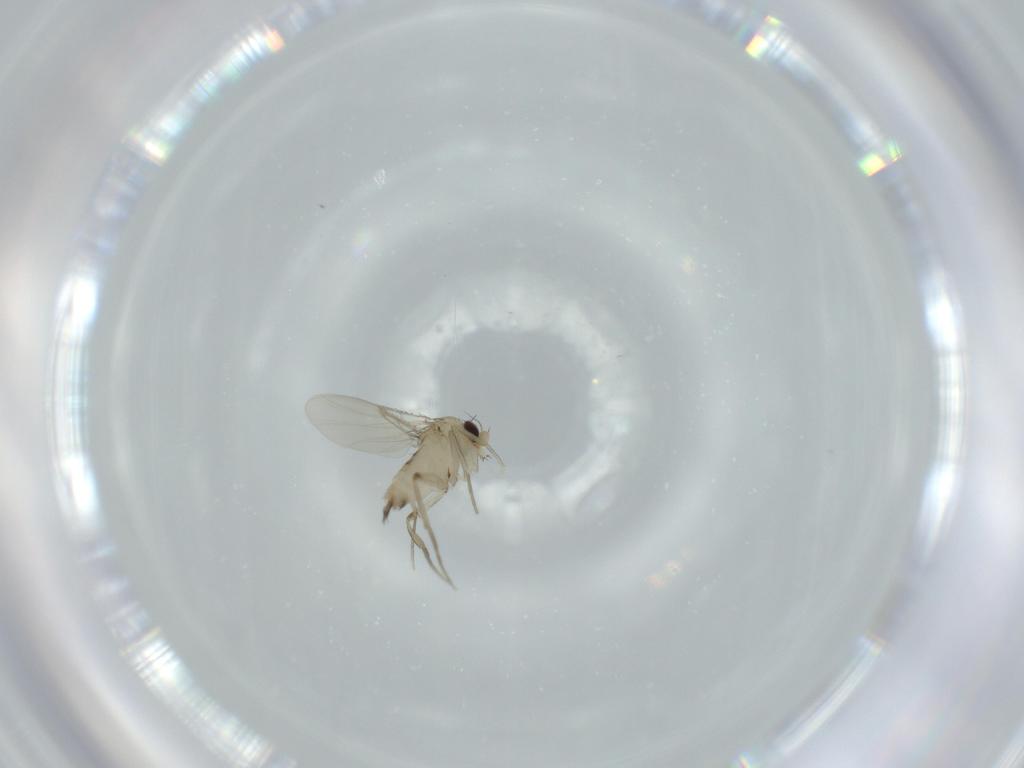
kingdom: Animalia
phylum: Arthropoda
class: Insecta
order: Diptera
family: Phoridae
